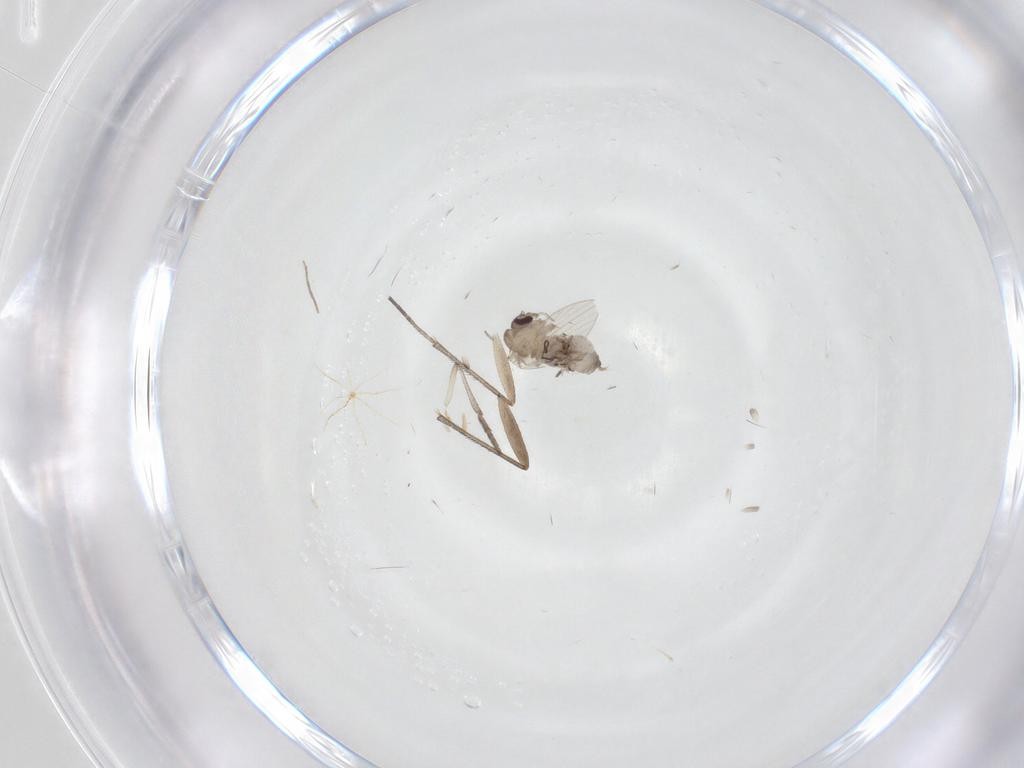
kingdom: Animalia
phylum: Arthropoda
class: Insecta
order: Diptera
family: Psychodidae
